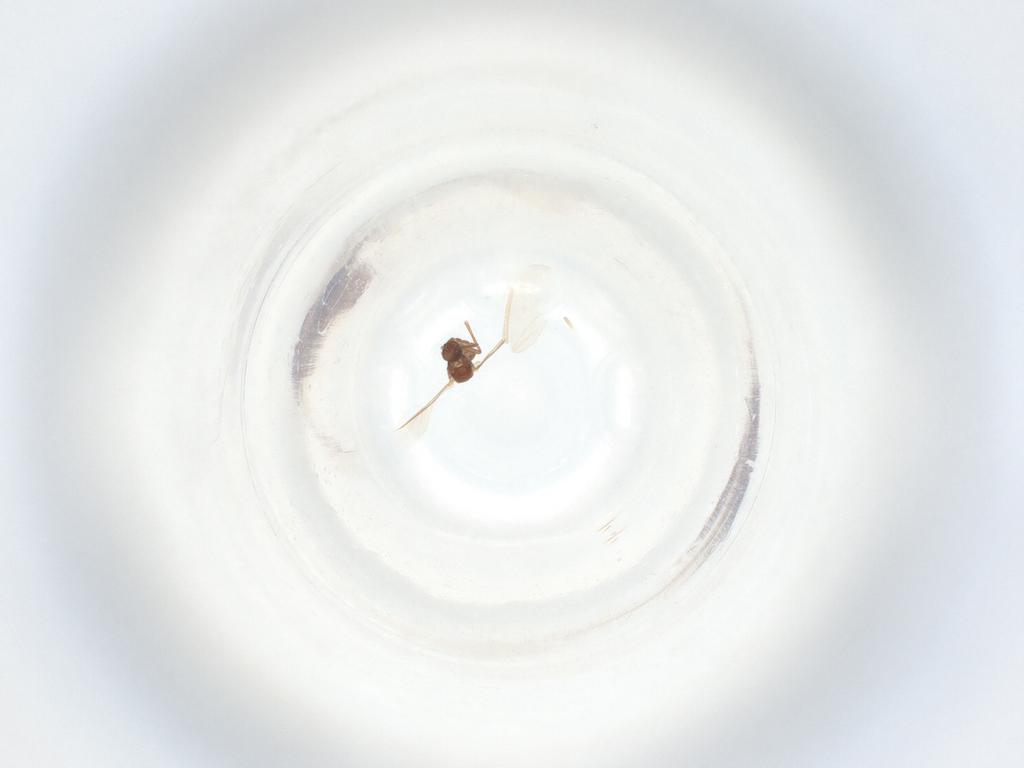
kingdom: Animalia
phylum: Arthropoda
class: Insecta
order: Diptera
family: Sciaridae
